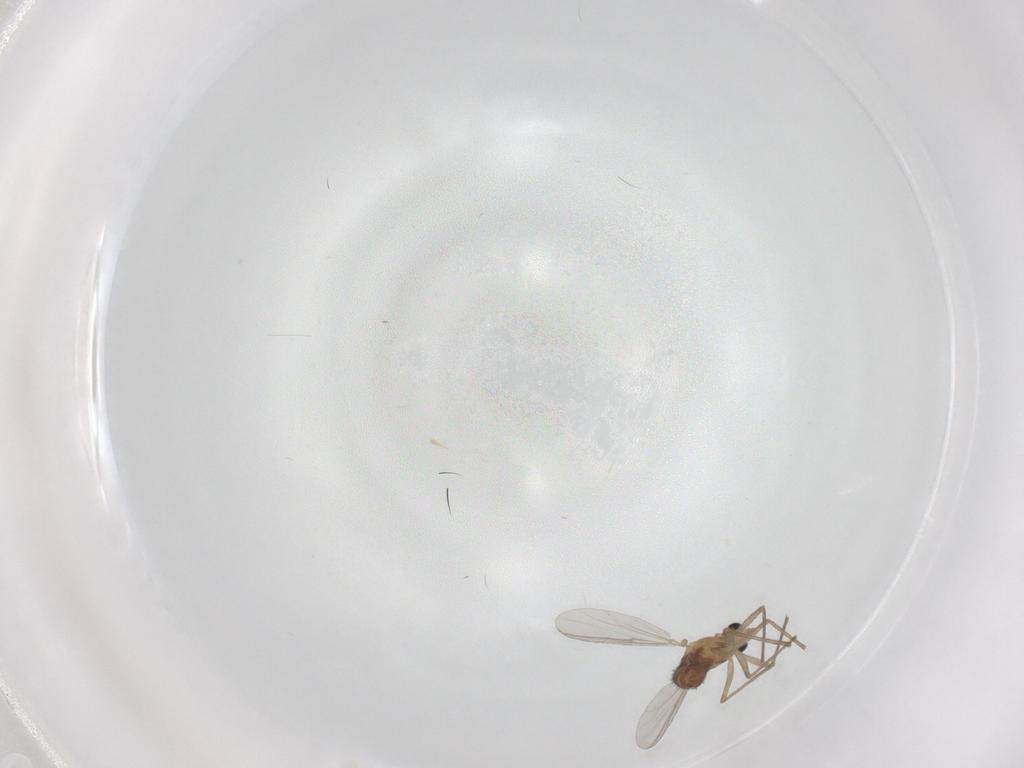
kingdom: Animalia
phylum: Arthropoda
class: Insecta
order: Diptera
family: Chironomidae
